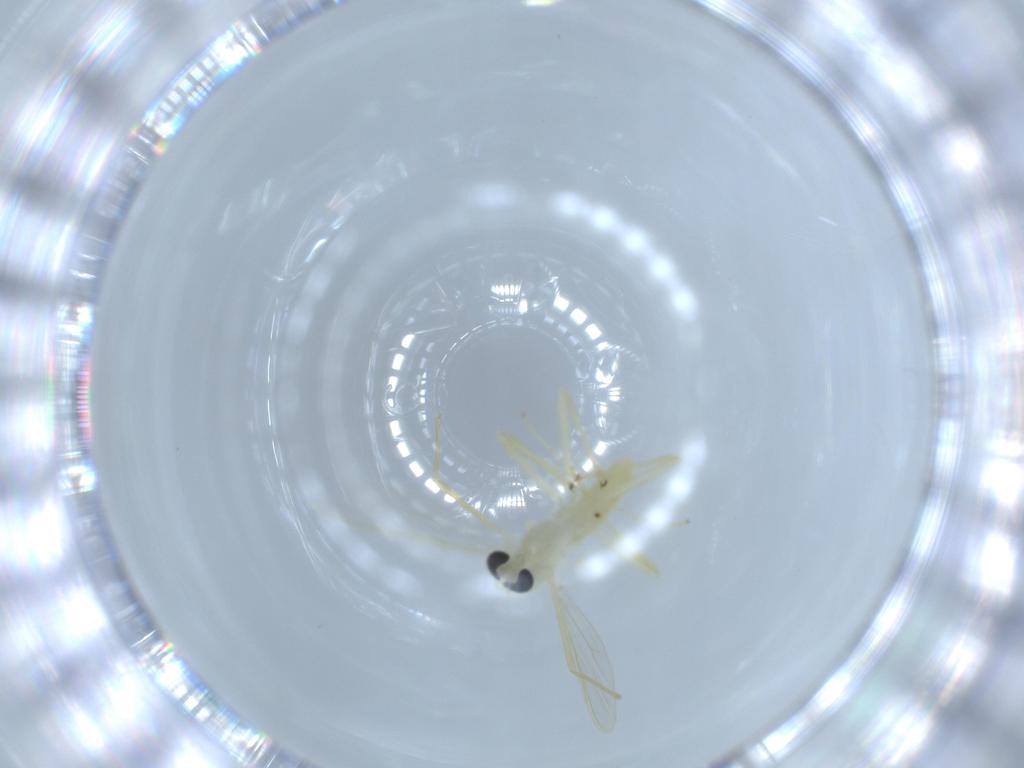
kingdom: Animalia
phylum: Arthropoda
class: Insecta
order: Diptera
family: Chironomidae
